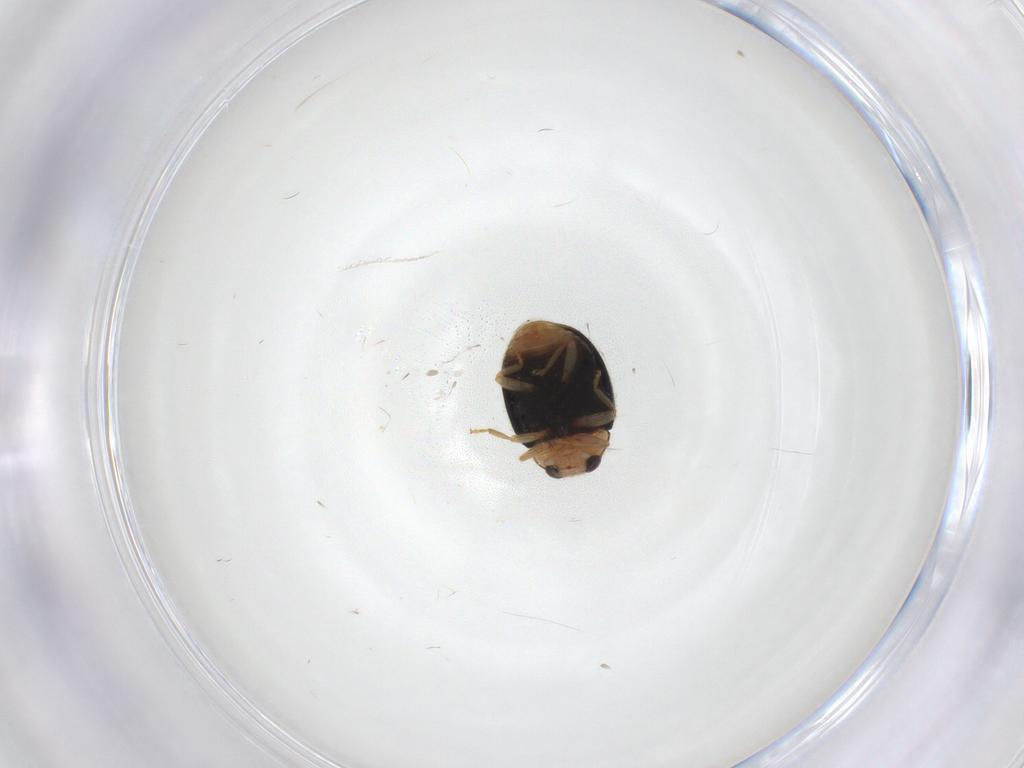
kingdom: Animalia
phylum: Arthropoda
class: Insecta
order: Coleoptera
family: Coccinellidae
